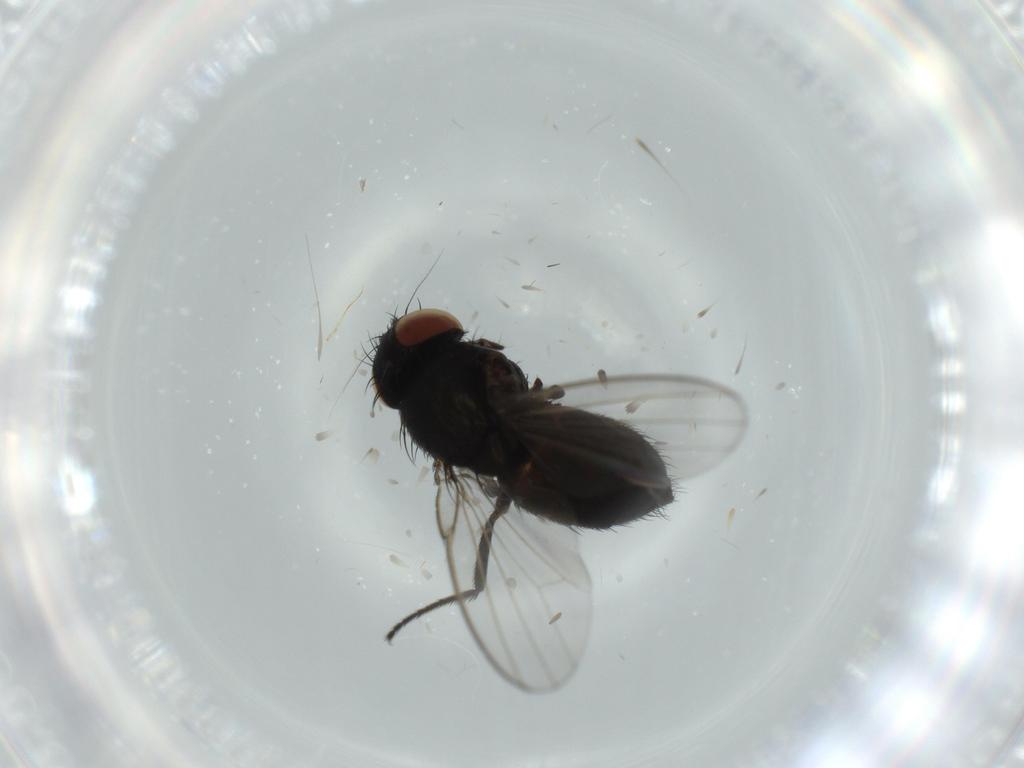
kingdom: Animalia
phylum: Arthropoda
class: Insecta
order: Diptera
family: Milichiidae
